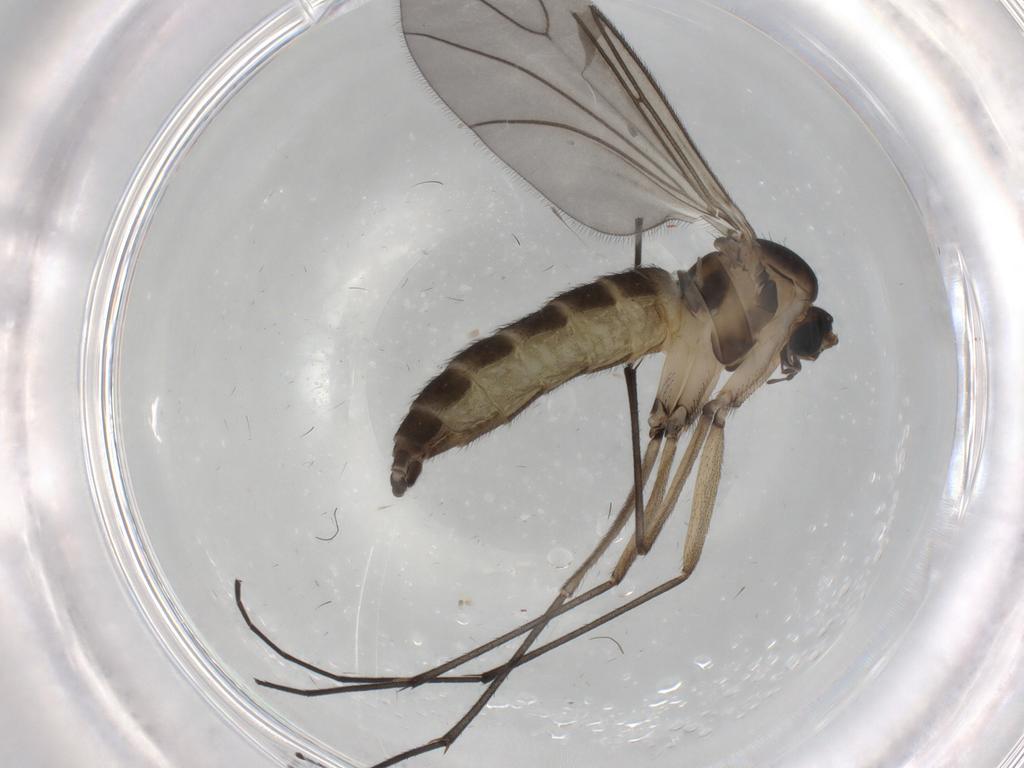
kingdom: Animalia
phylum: Arthropoda
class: Insecta
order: Diptera
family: Sciaridae
